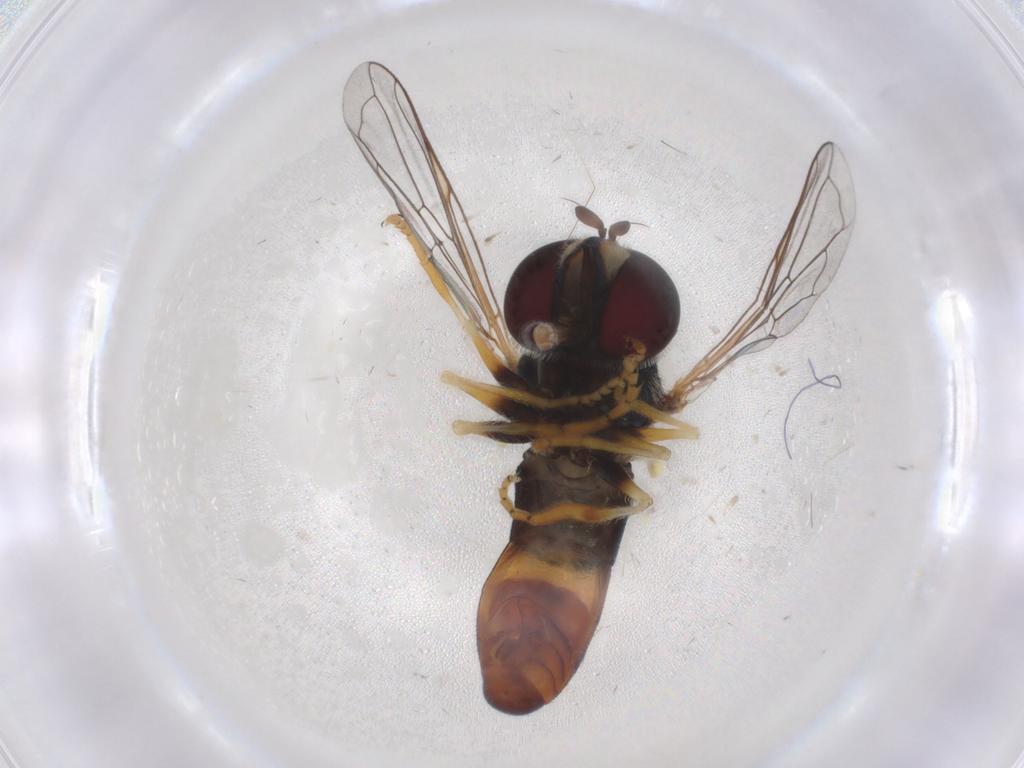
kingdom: Animalia
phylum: Arthropoda
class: Insecta
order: Diptera
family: Syrphidae
